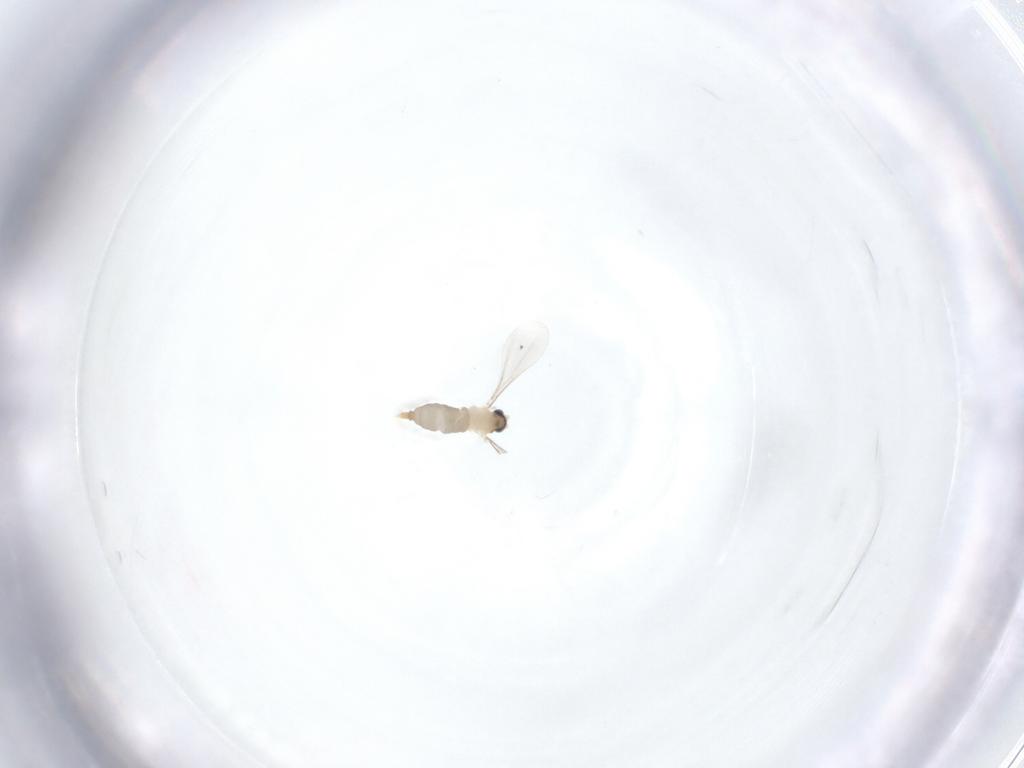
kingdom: Animalia
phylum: Arthropoda
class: Insecta
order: Diptera
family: Cecidomyiidae
